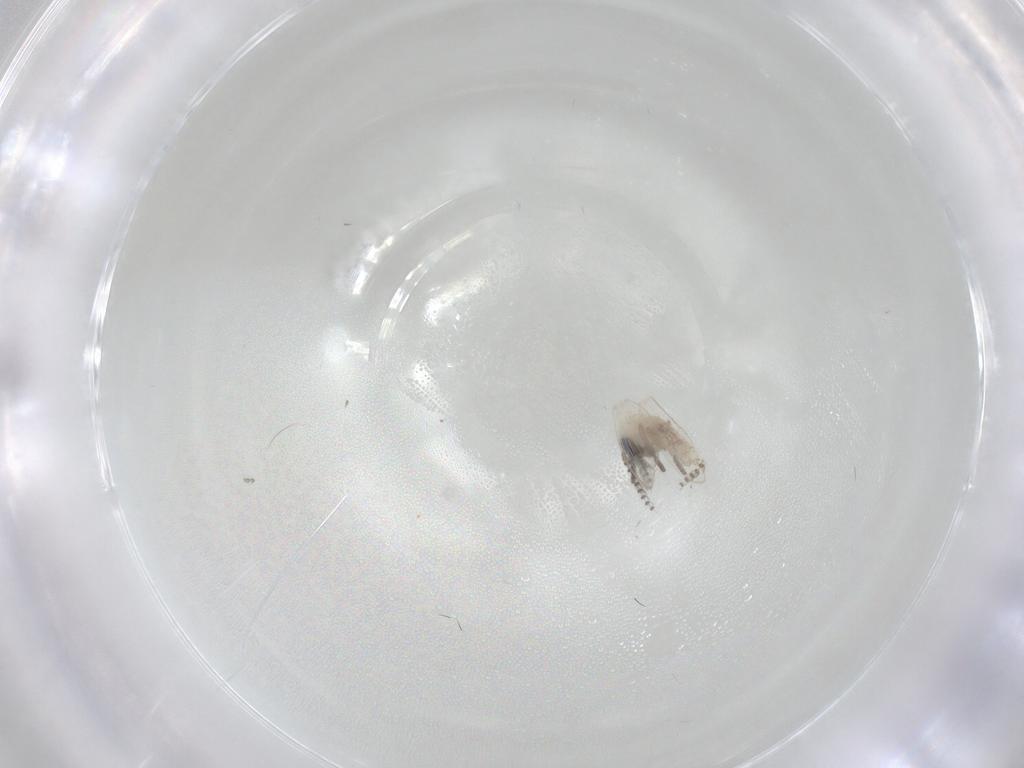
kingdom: Animalia
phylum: Arthropoda
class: Insecta
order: Diptera
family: Psychodidae
